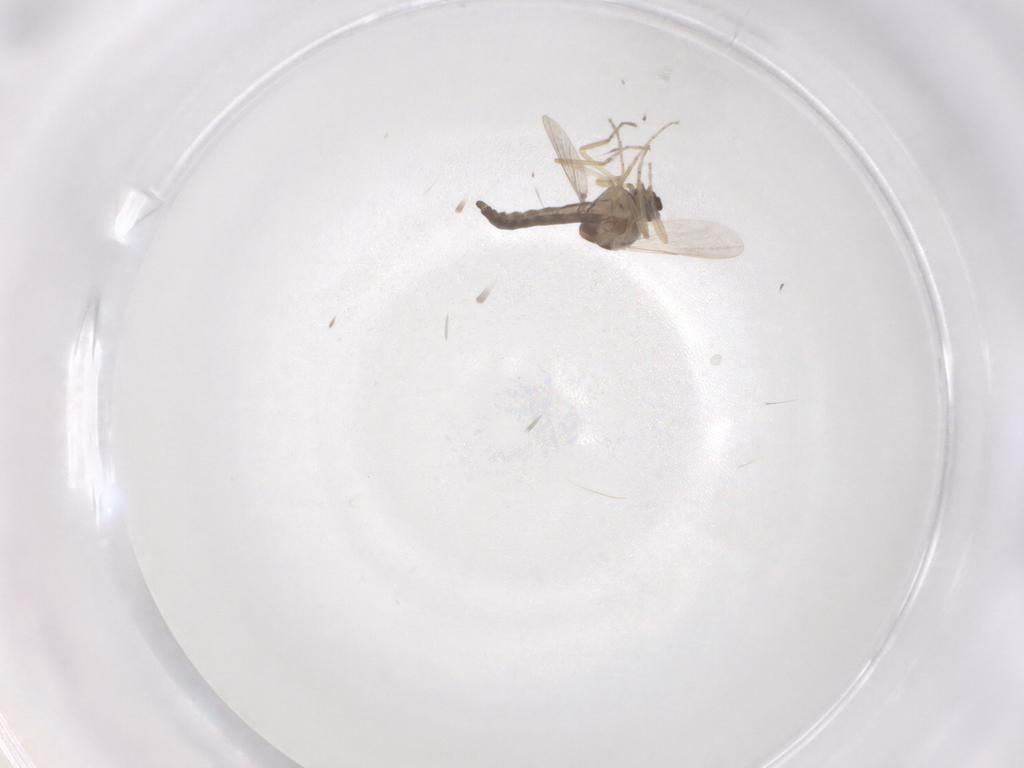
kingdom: Animalia
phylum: Arthropoda
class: Insecta
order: Diptera
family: Ceratopogonidae
